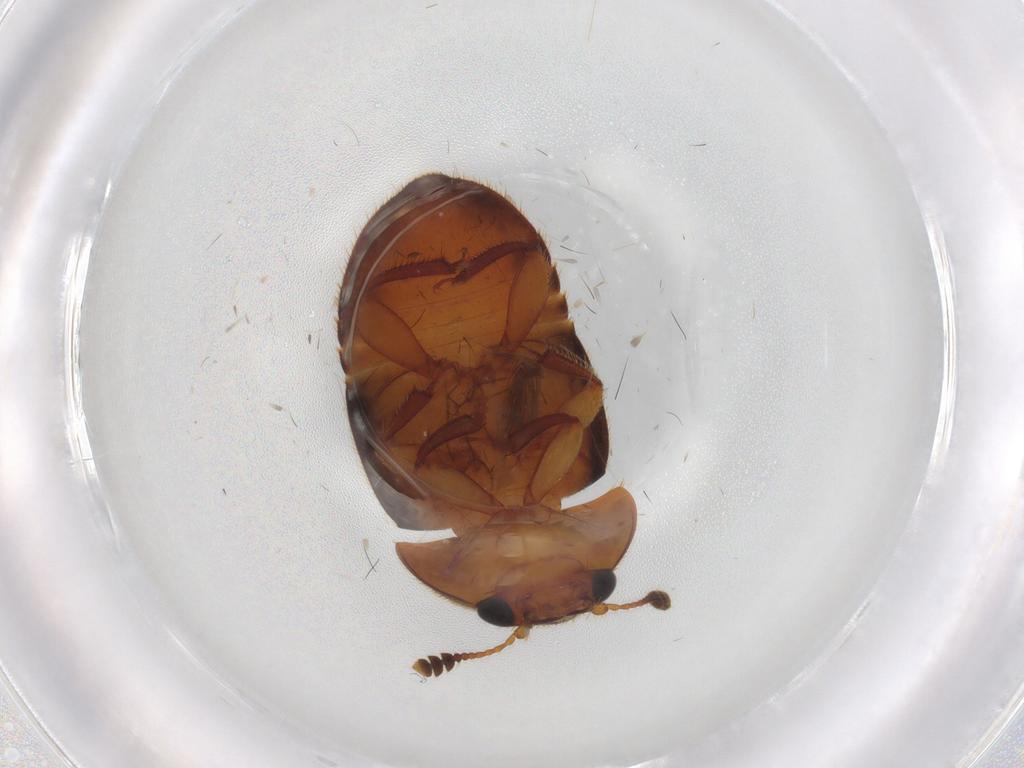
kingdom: Animalia
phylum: Arthropoda
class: Insecta
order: Coleoptera
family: Nitidulidae
